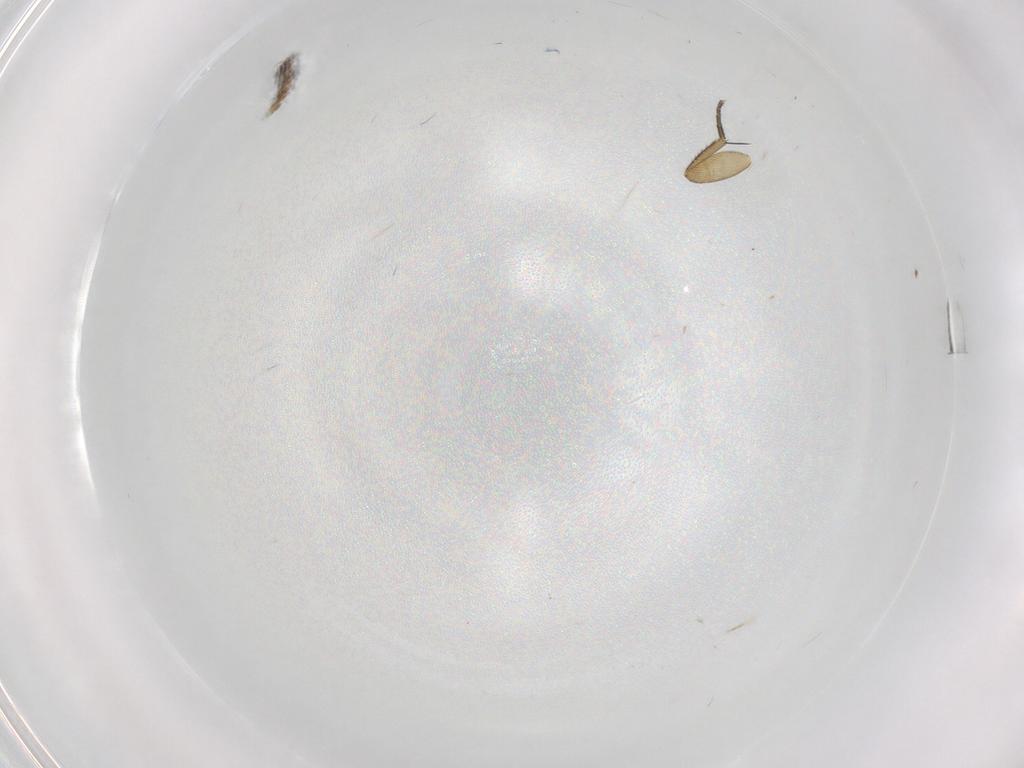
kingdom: Animalia
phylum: Arthropoda
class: Insecta
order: Diptera
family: Phoridae
